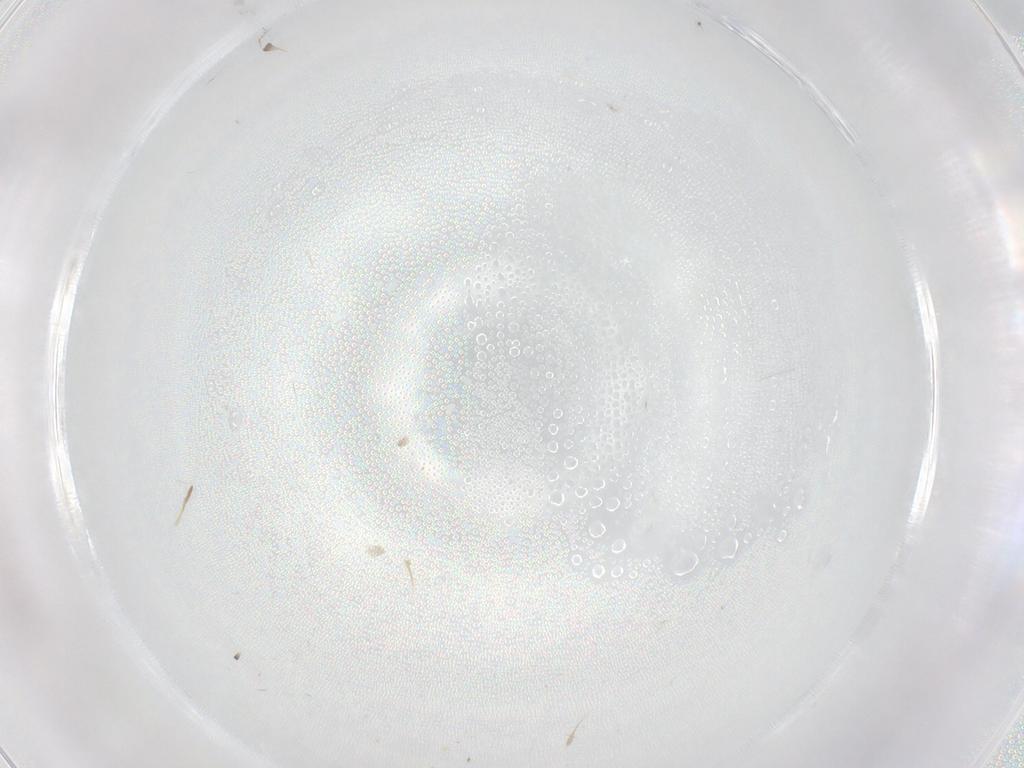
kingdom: Animalia
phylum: Arthropoda
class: Insecta
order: Diptera
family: Ceratopogonidae
